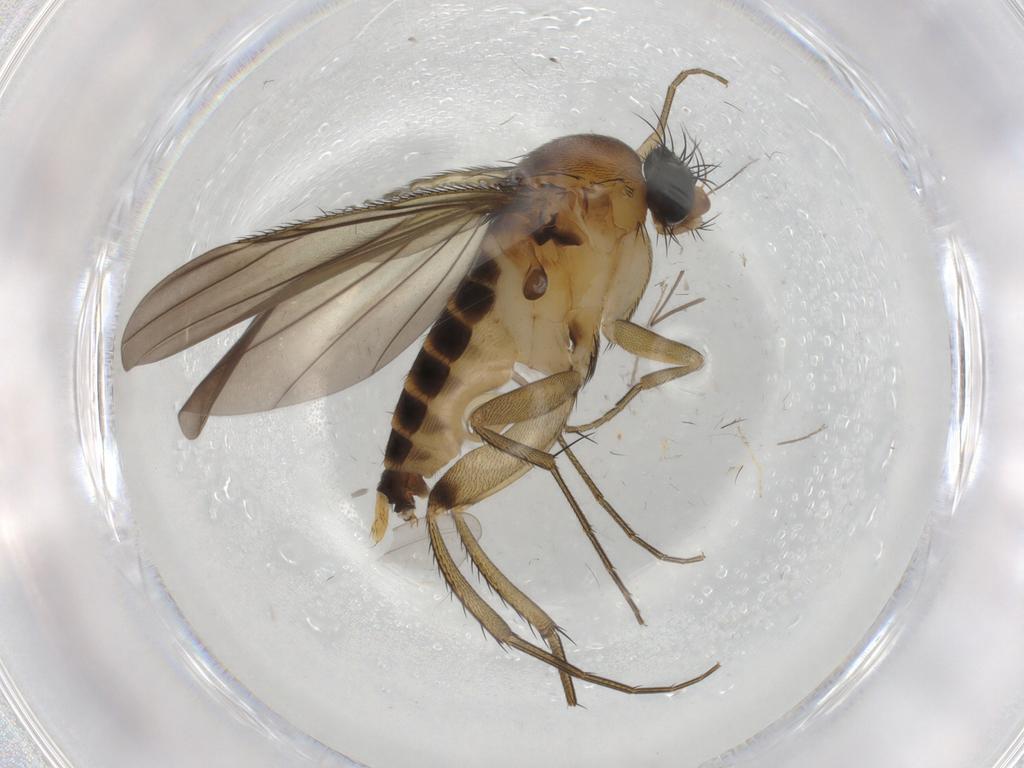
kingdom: Animalia
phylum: Arthropoda
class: Insecta
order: Diptera
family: Phoridae
